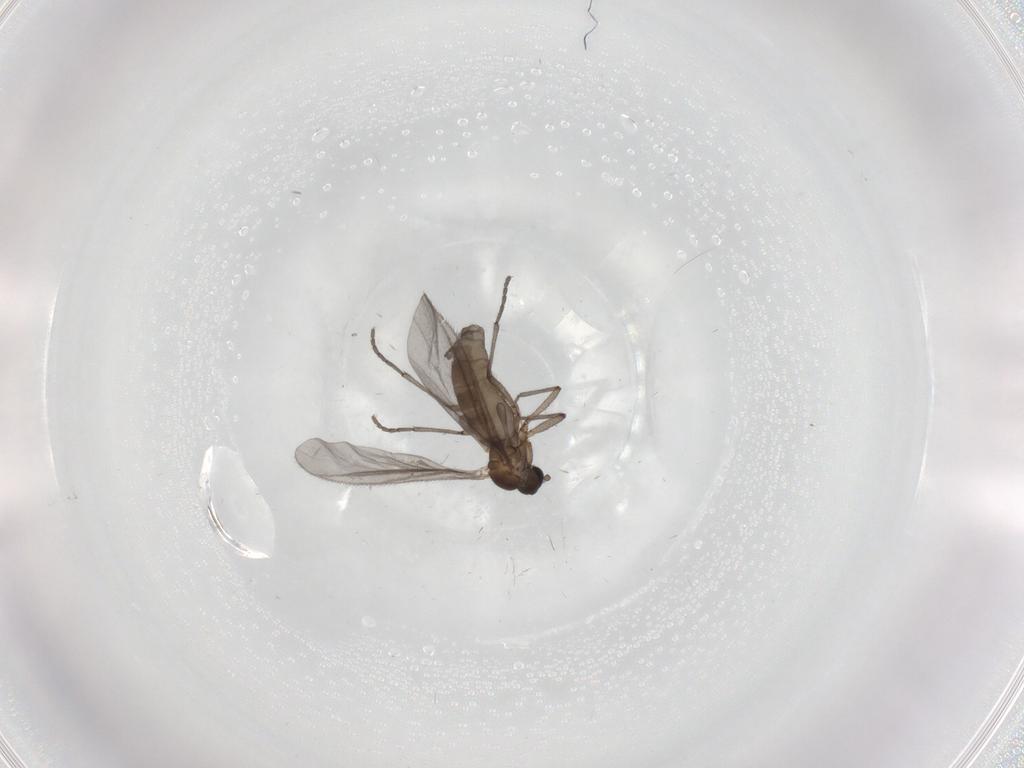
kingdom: Animalia
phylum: Arthropoda
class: Insecta
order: Diptera
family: Sciaridae
